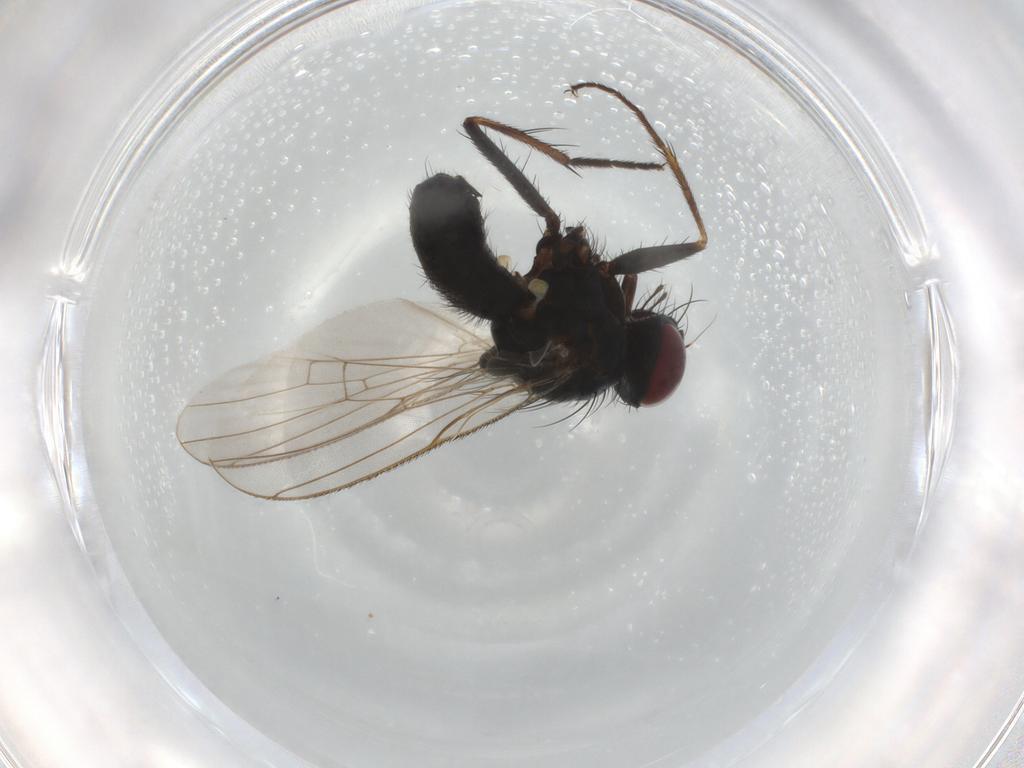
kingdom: Animalia
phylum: Arthropoda
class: Insecta
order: Diptera
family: Muscidae
